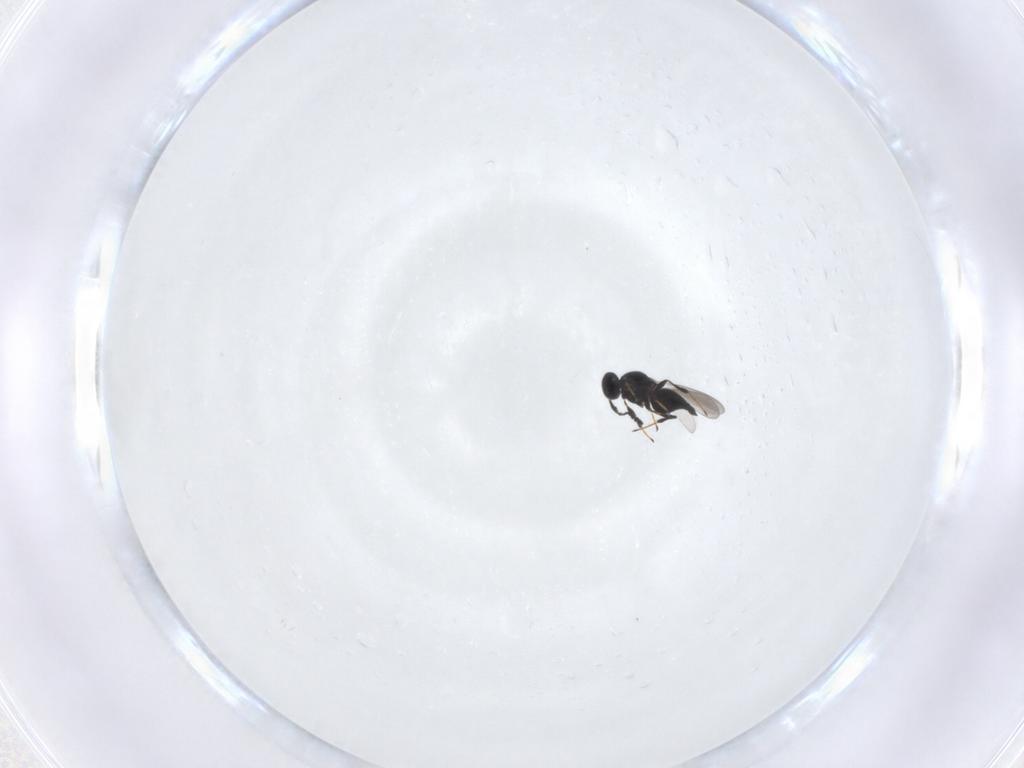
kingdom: Animalia
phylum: Arthropoda
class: Insecta
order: Hymenoptera
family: Platygastridae
